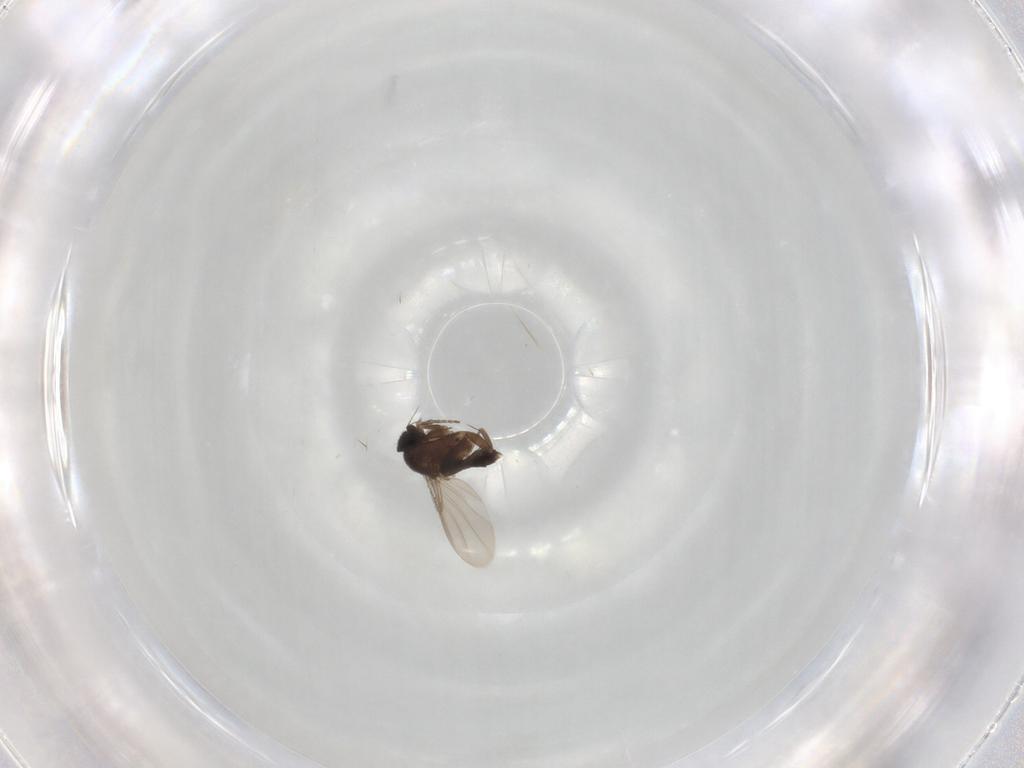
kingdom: Animalia
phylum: Arthropoda
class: Insecta
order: Diptera
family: Phoridae
